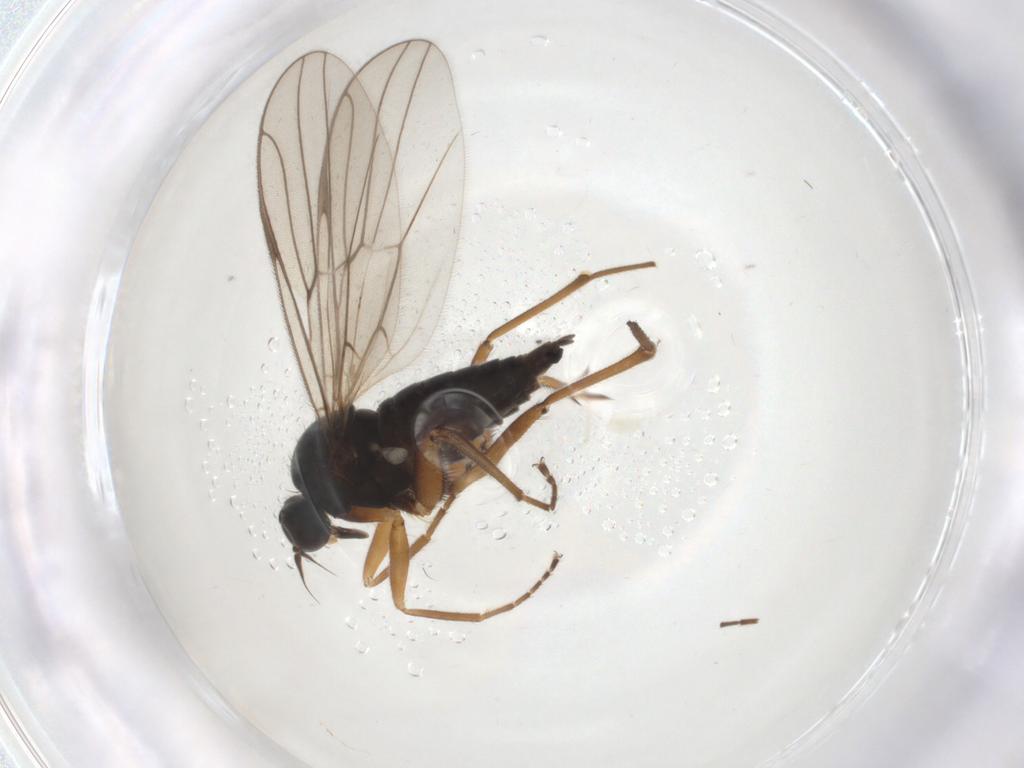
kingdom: Animalia
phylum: Arthropoda
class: Insecta
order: Diptera
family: Hybotidae
